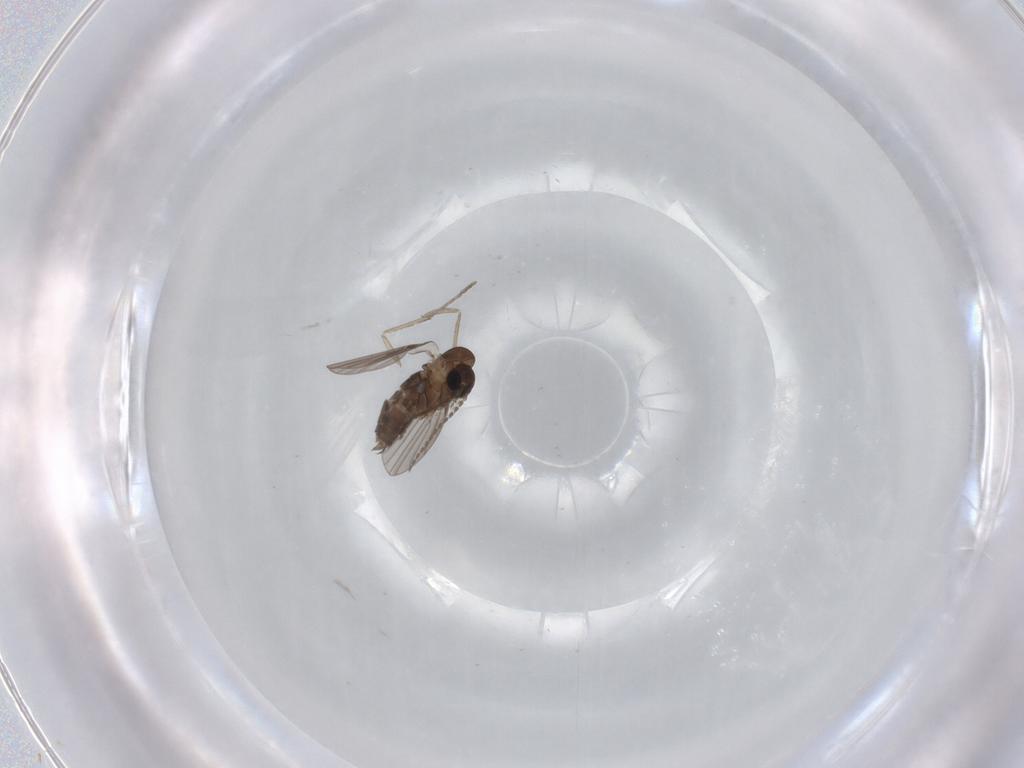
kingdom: Animalia
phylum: Arthropoda
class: Insecta
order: Diptera
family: Psychodidae
